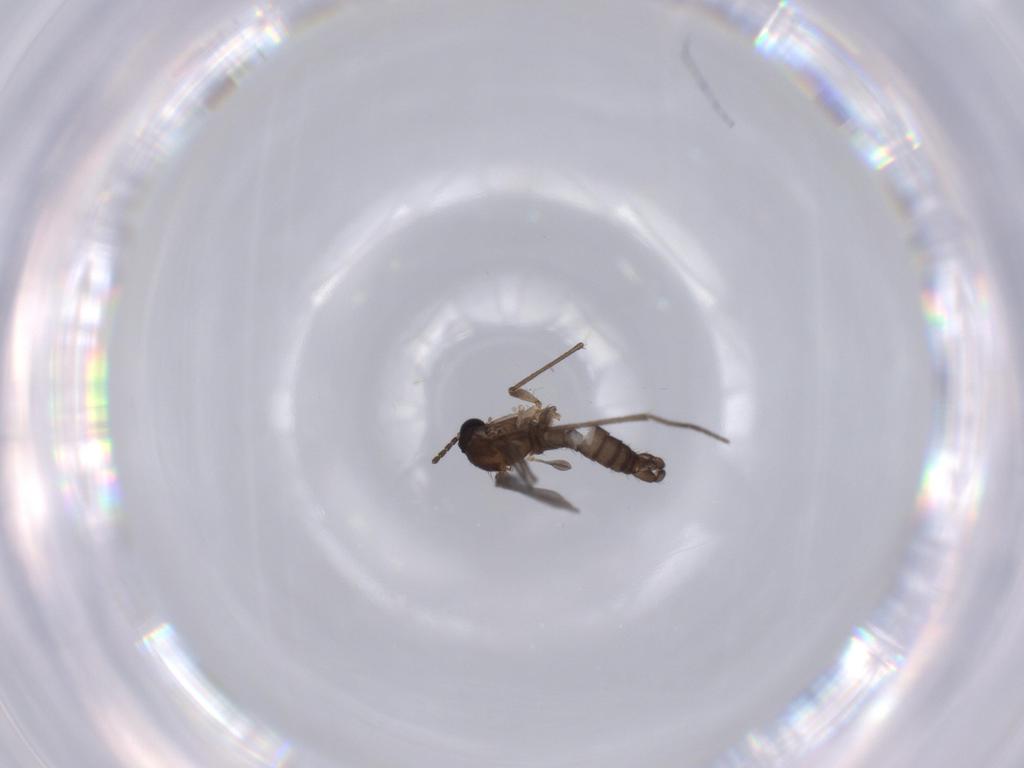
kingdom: Animalia
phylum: Arthropoda
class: Insecta
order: Diptera
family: Sciaridae
